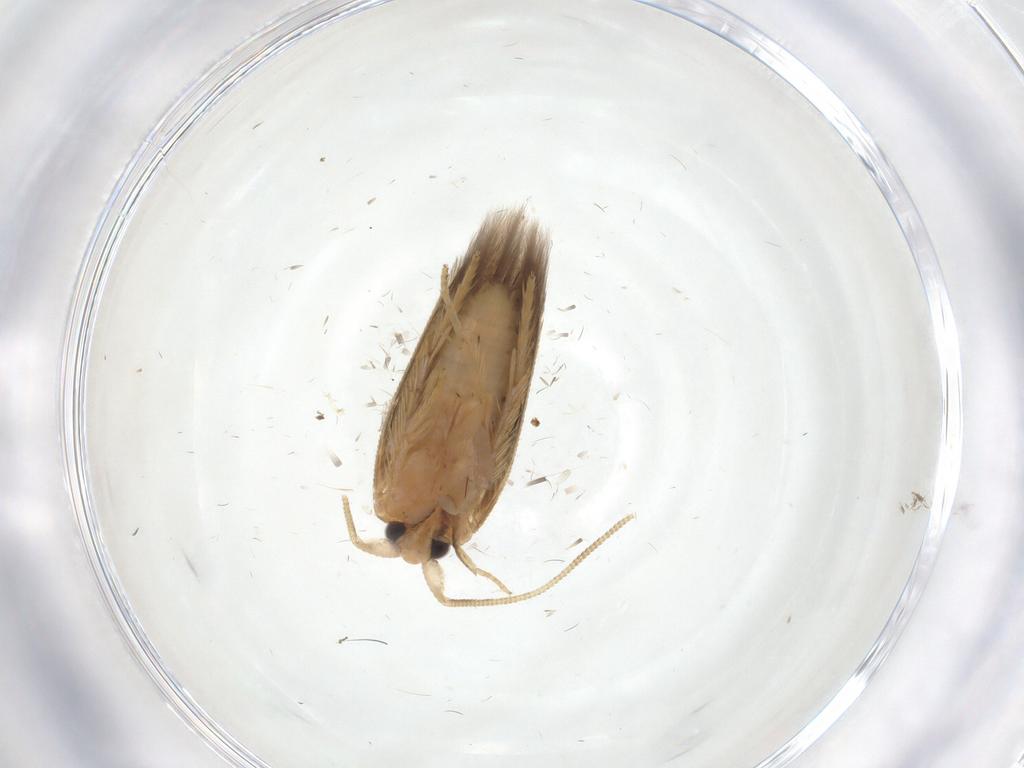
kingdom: Animalia
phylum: Arthropoda
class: Insecta
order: Lepidoptera
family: Opostegidae
